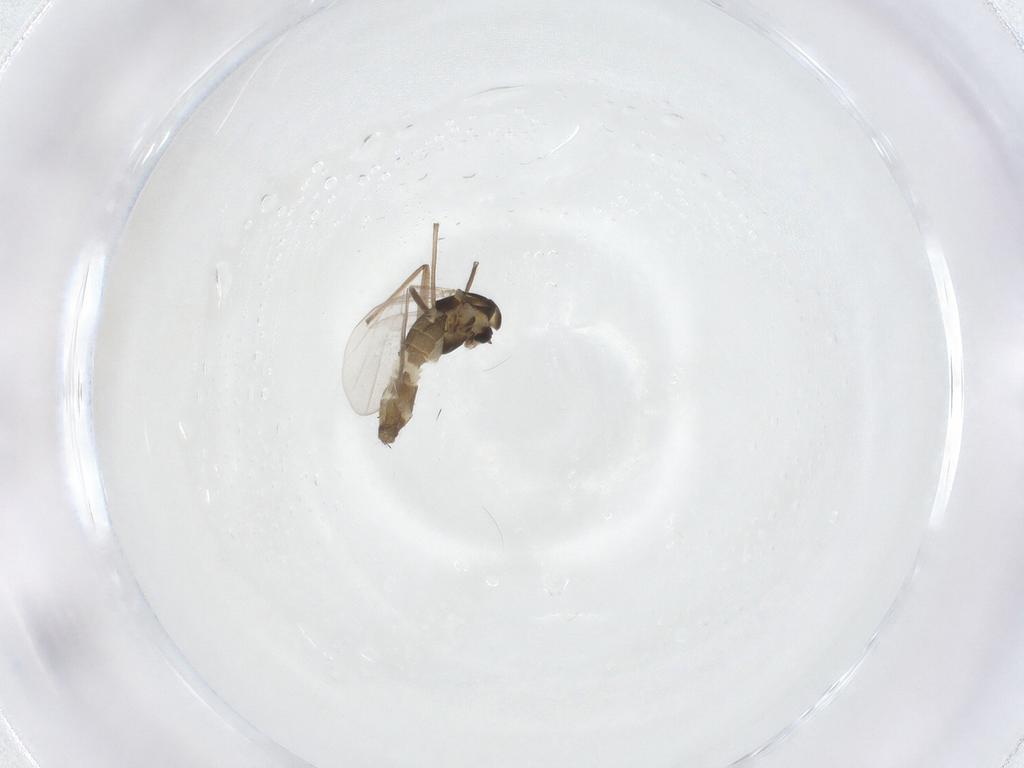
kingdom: Animalia
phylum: Arthropoda
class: Insecta
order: Diptera
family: Chironomidae
